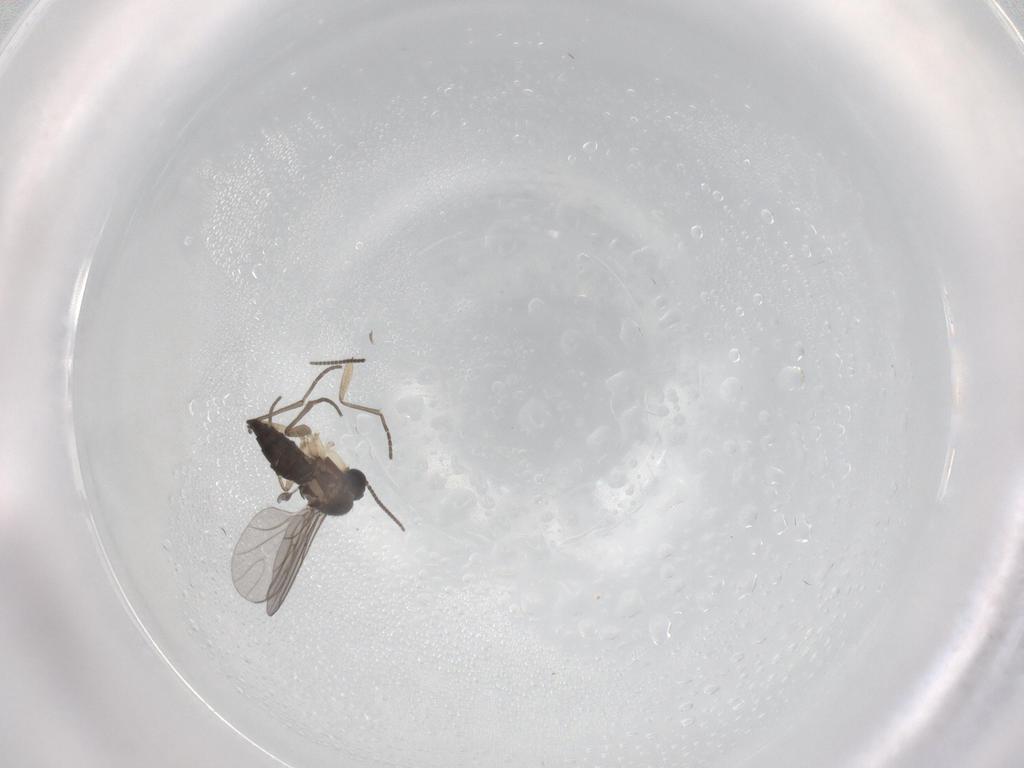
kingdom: Animalia
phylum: Arthropoda
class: Insecta
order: Diptera
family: Sciaridae
